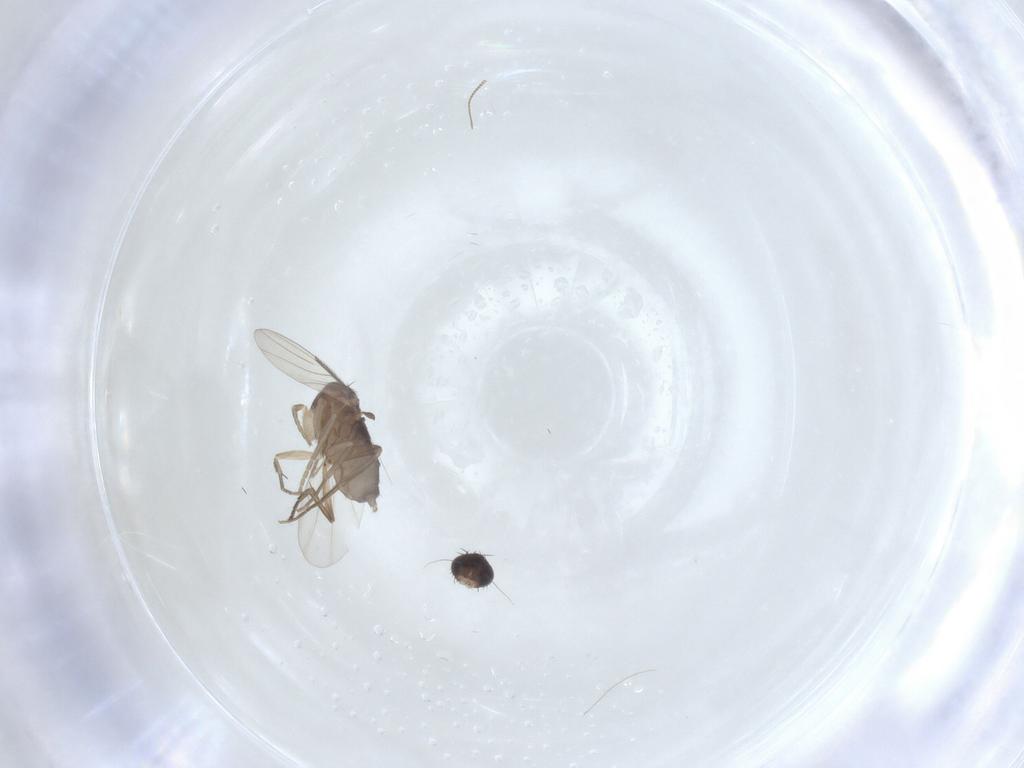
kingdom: Animalia
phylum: Arthropoda
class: Insecta
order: Diptera
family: Phoridae
